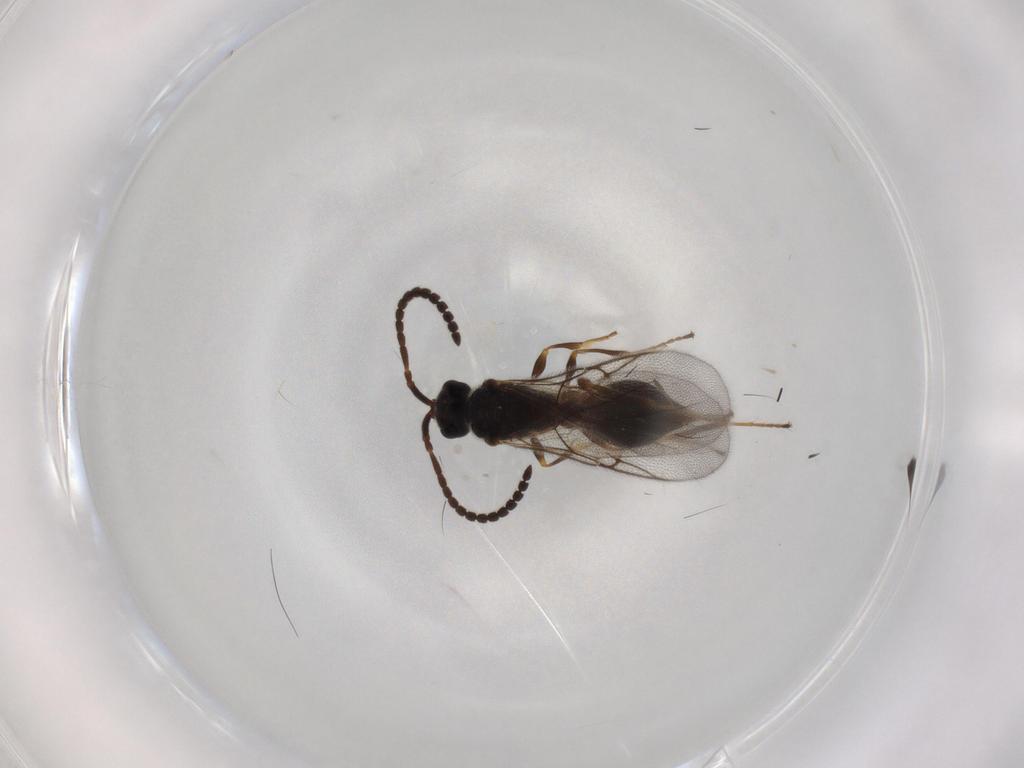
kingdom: Animalia
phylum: Arthropoda
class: Insecta
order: Hymenoptera
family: Diapriidae
